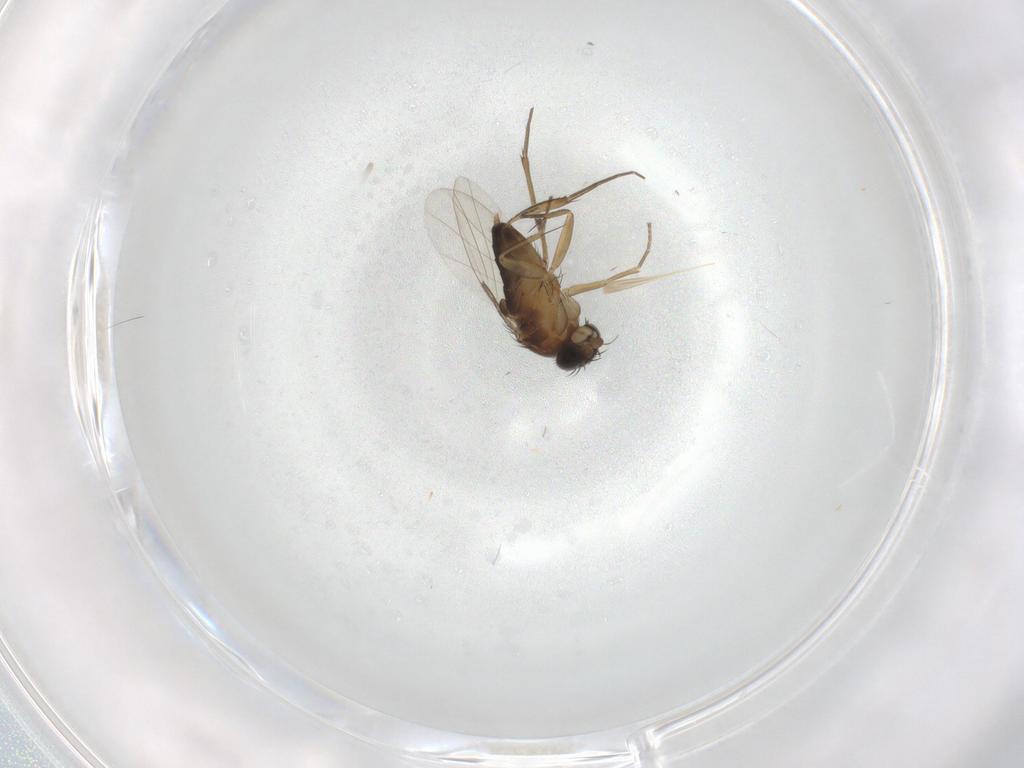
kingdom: Animalia
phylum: Arthropoda
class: Insecta
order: Diptera
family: Phoridae
